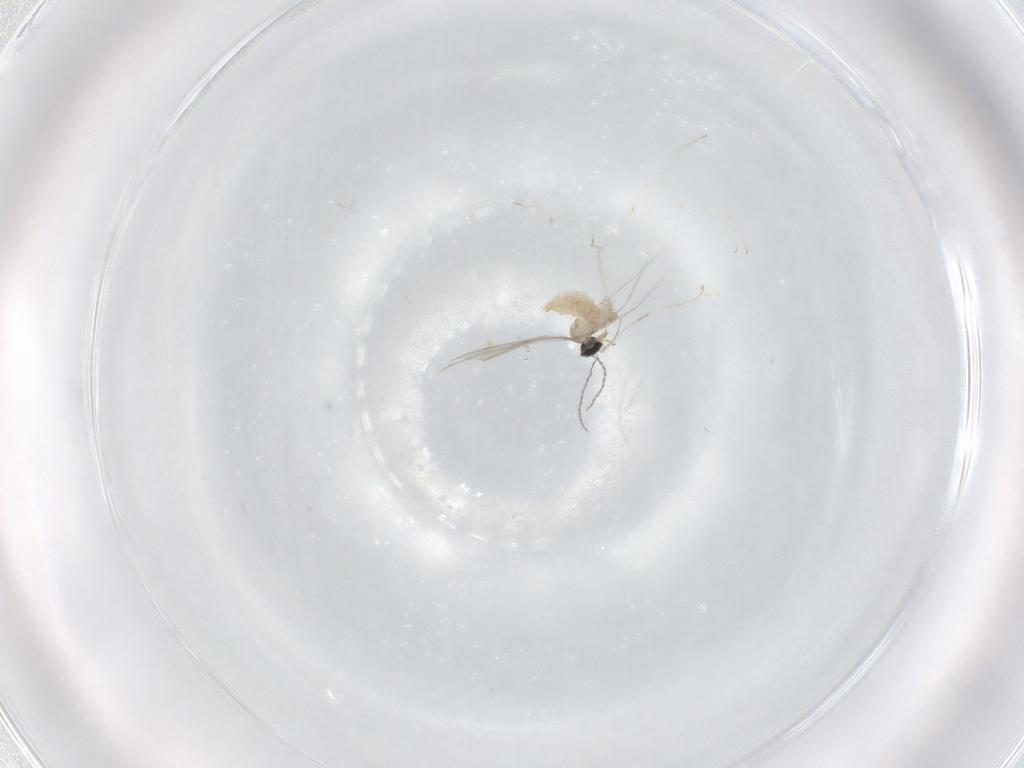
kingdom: Animalia
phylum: Arthropoda
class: Insecta
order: Diptera
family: Cecidomyiidae
